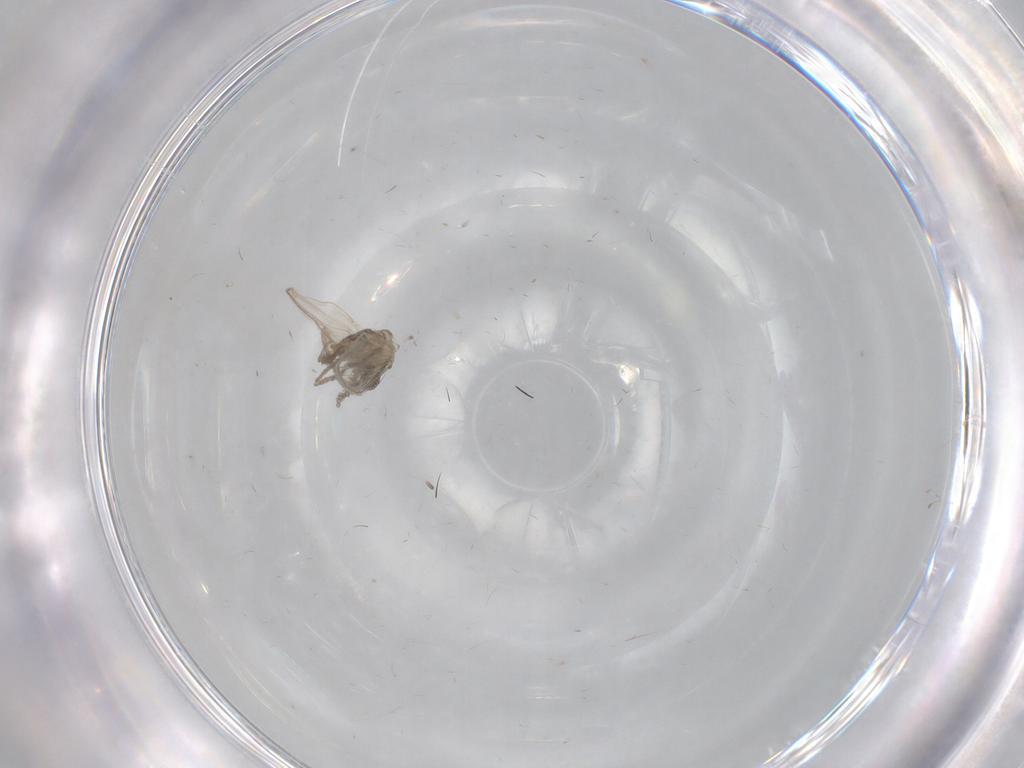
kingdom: Animalia
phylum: Arthropoda
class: Insecta
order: Diptera
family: Psychodidae
